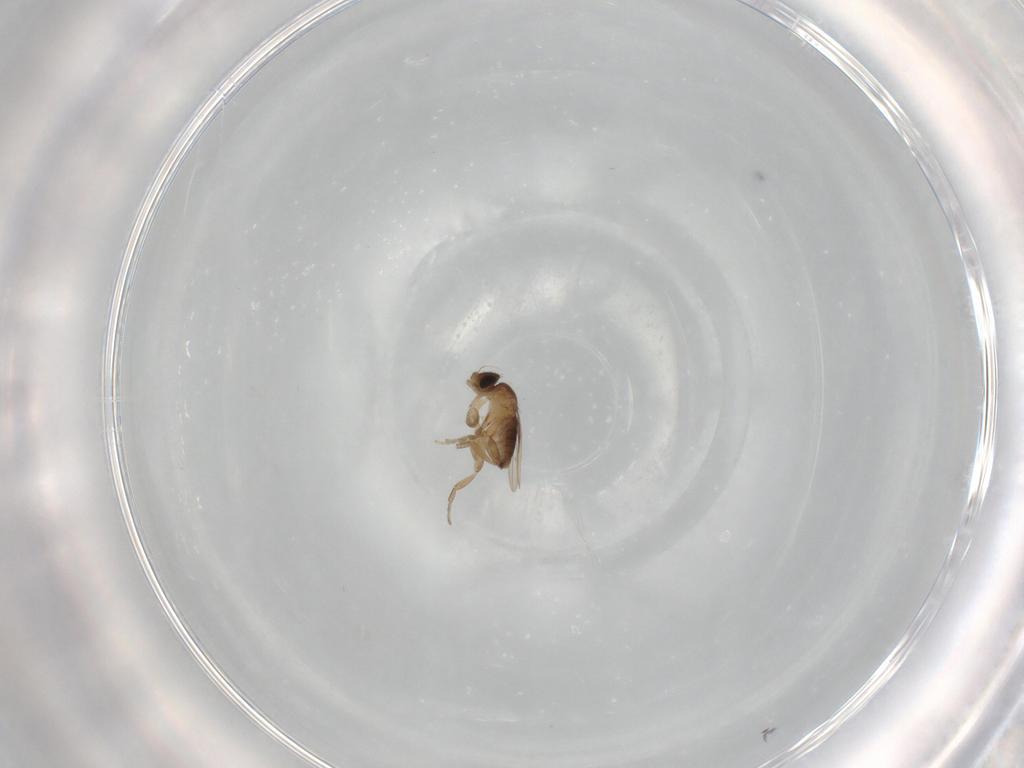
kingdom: Animalia
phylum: Arthropoda
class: Insecta
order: Diptera
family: Cecidomyiidae
